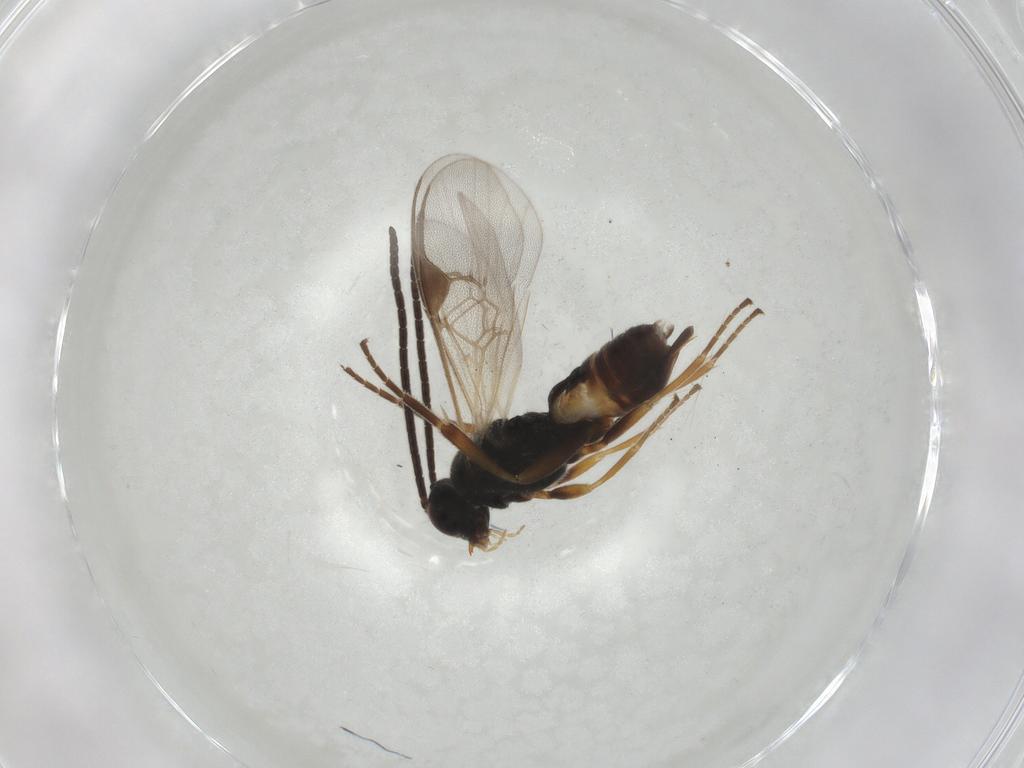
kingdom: Animalia
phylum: Arthropoda
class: Insecta
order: Hymenoptera
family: Braconidae
